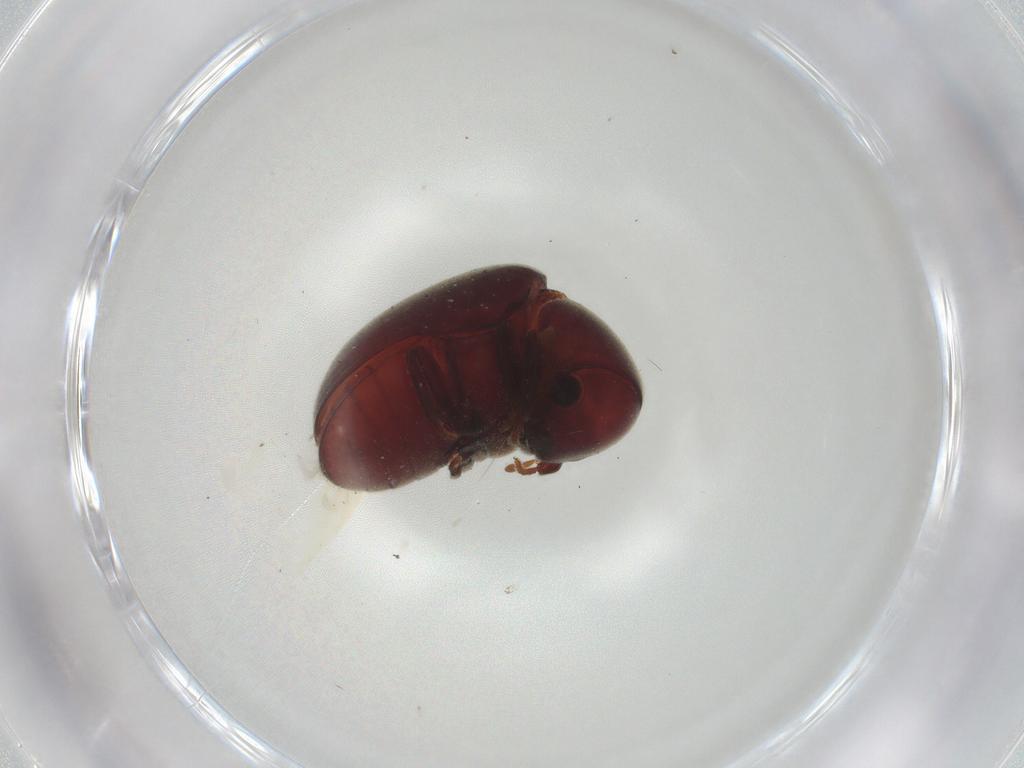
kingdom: Animalia
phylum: Arthropoda
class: Insecta
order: Coleoptera
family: Ptinidae
